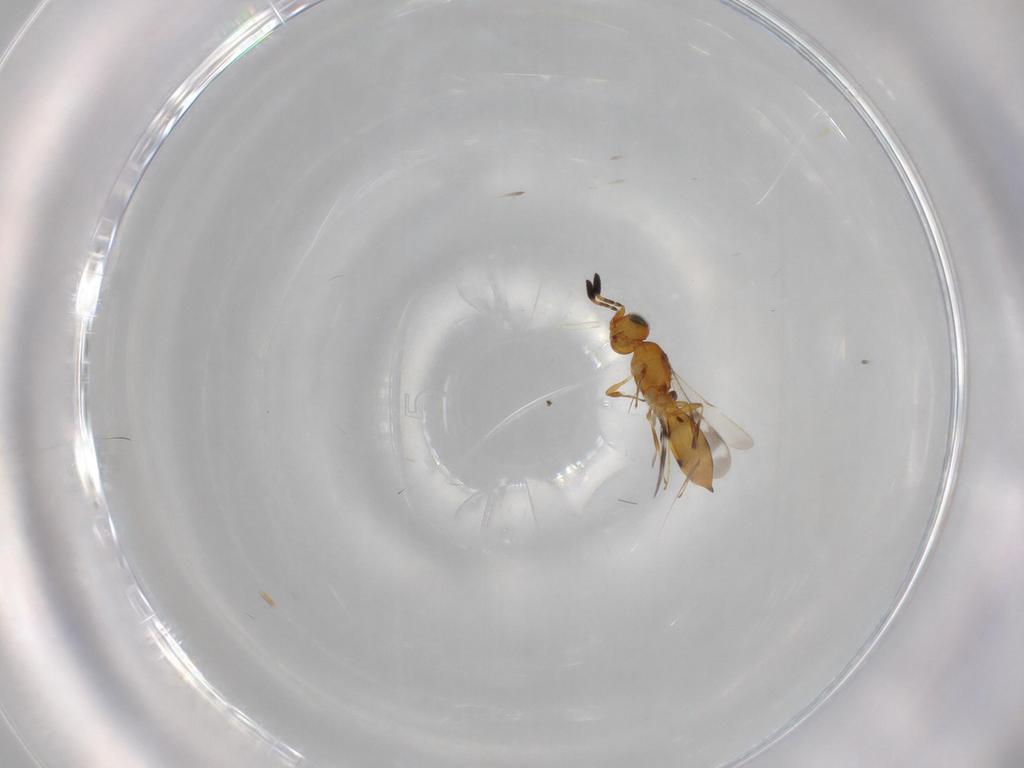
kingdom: Animalia
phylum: Arthropoda
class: Insecta
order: Hymenoptera
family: Scelionidae
